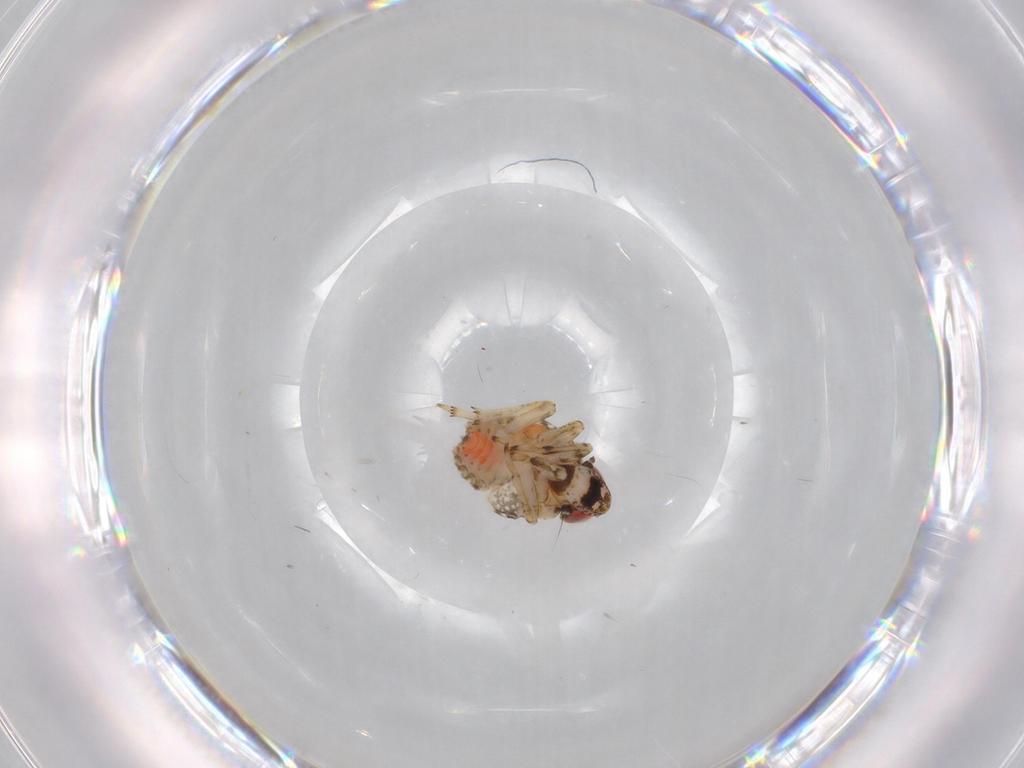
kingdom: Animalia
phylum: Arthropoda
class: Insecta
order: Hemiptera
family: Issidae
